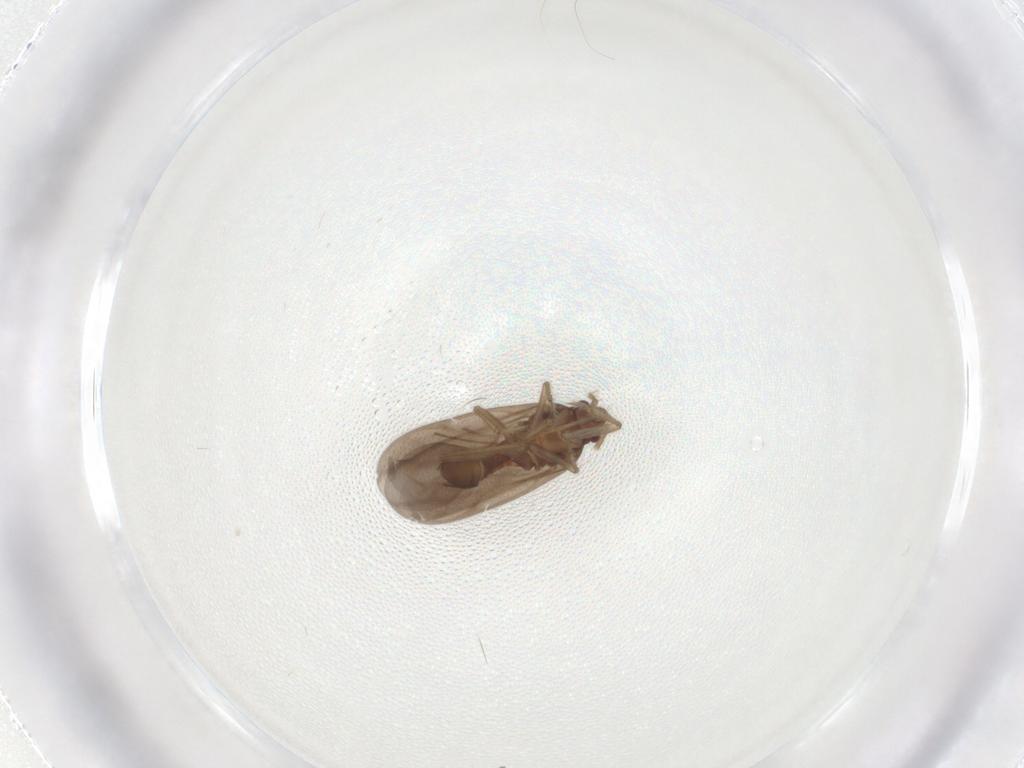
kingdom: Animalia
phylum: Arthropoda
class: Insecta
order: Hemiptera
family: Ceratocombidae
